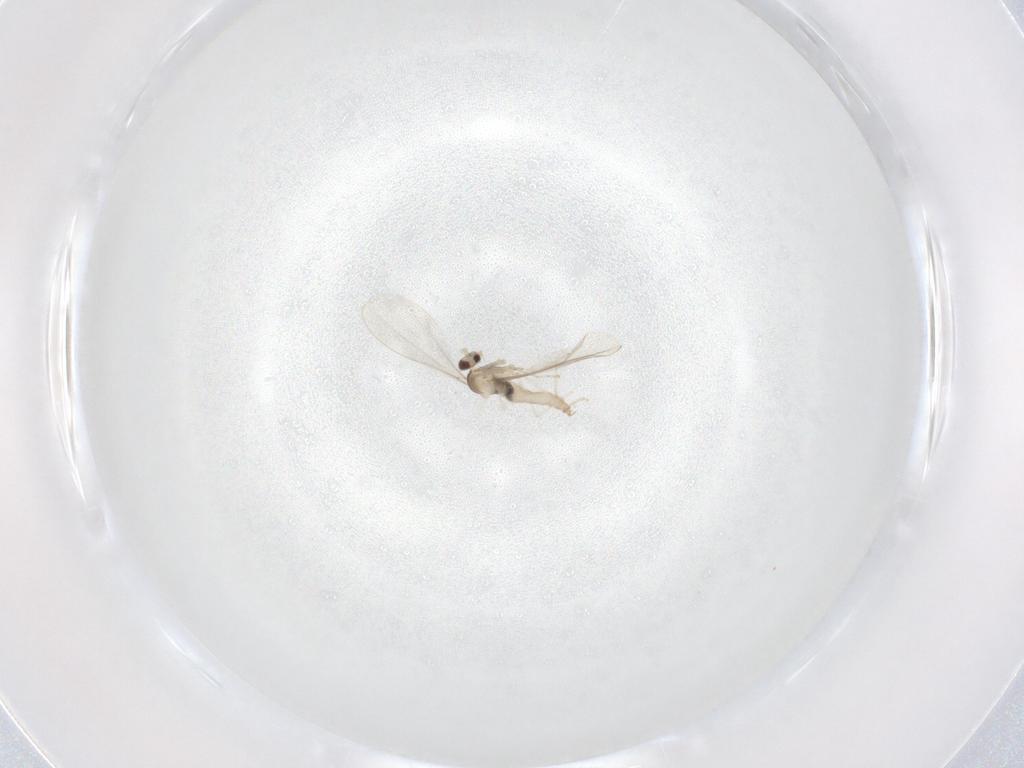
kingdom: Animalia
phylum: Arthropoda
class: Insecta
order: Diptera
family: Cecidomyiidae
